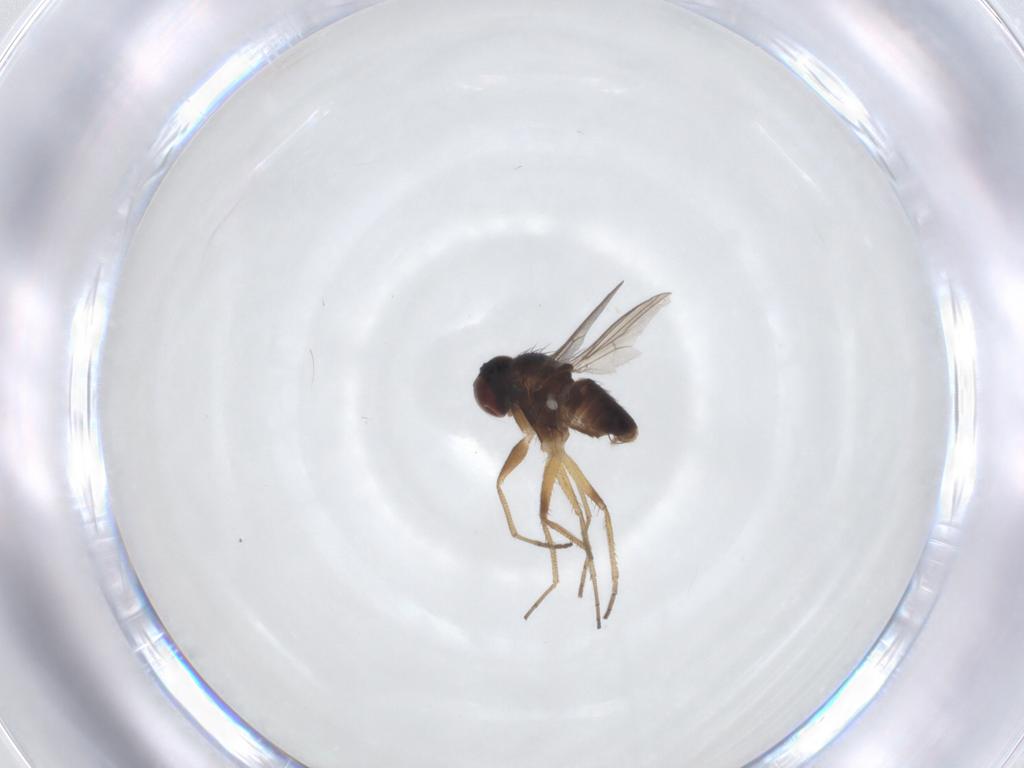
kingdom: Animalia
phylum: Arthropoda
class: Insecta
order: Diptera
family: Dolichopodidae
